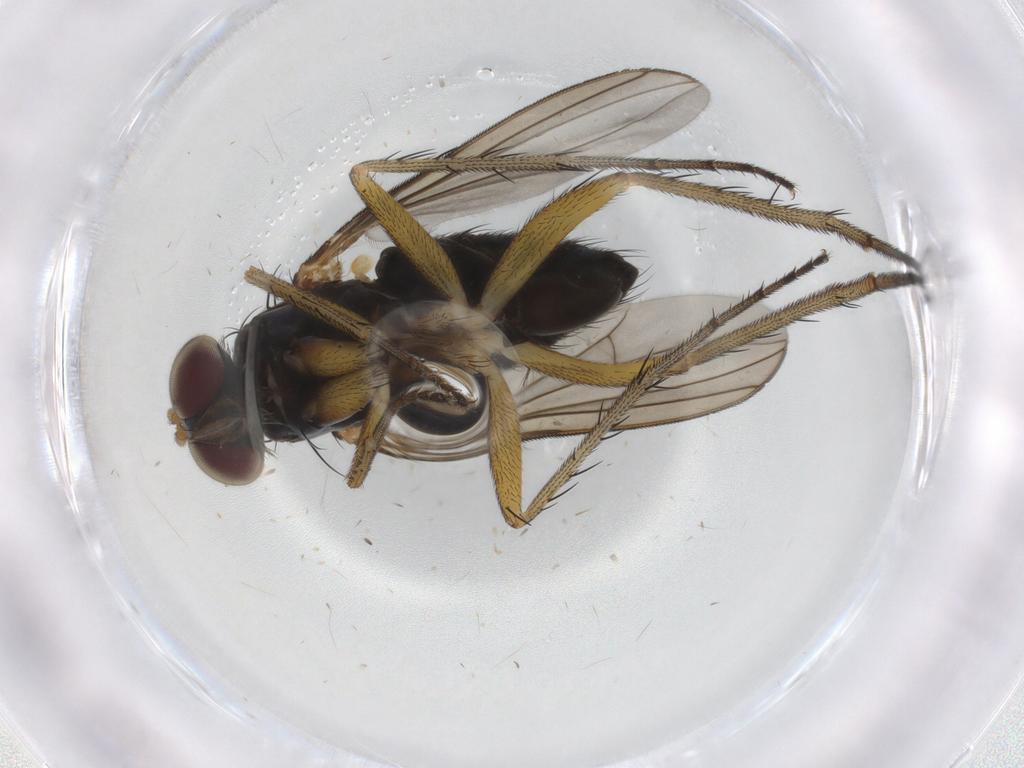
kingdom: Animalia
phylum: Arthropoda
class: Insecta
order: Diptera
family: Dolichopodidae
